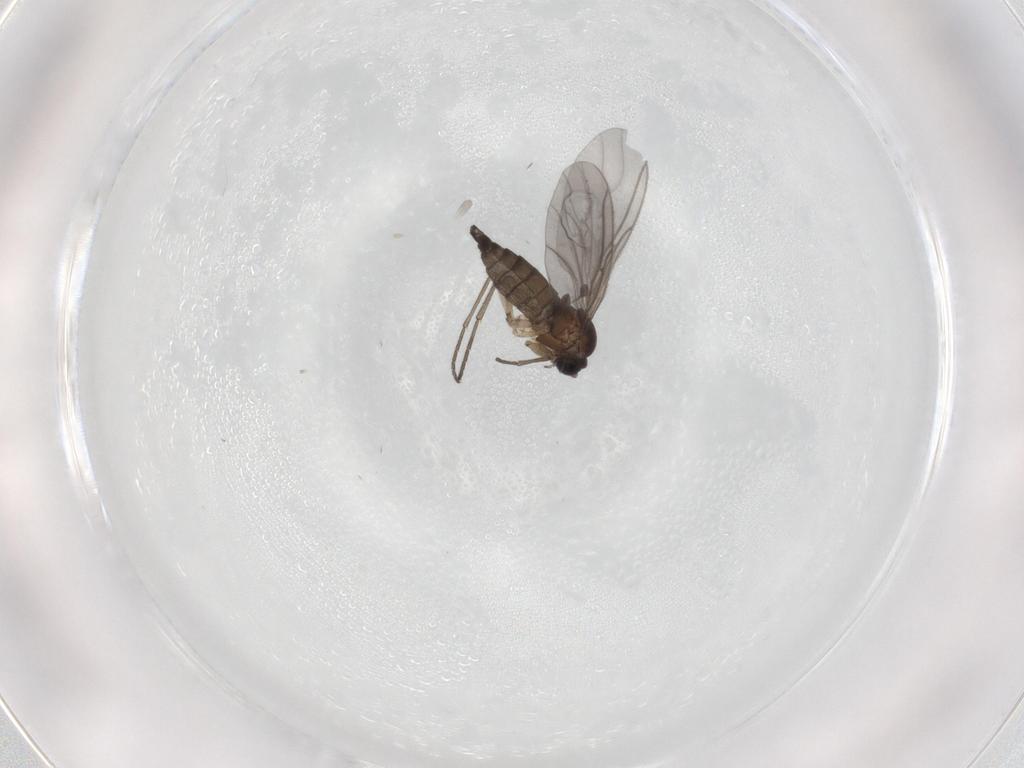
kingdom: Animalia
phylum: Arthropoda
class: Insecta
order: Diptera
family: Sciaridae
